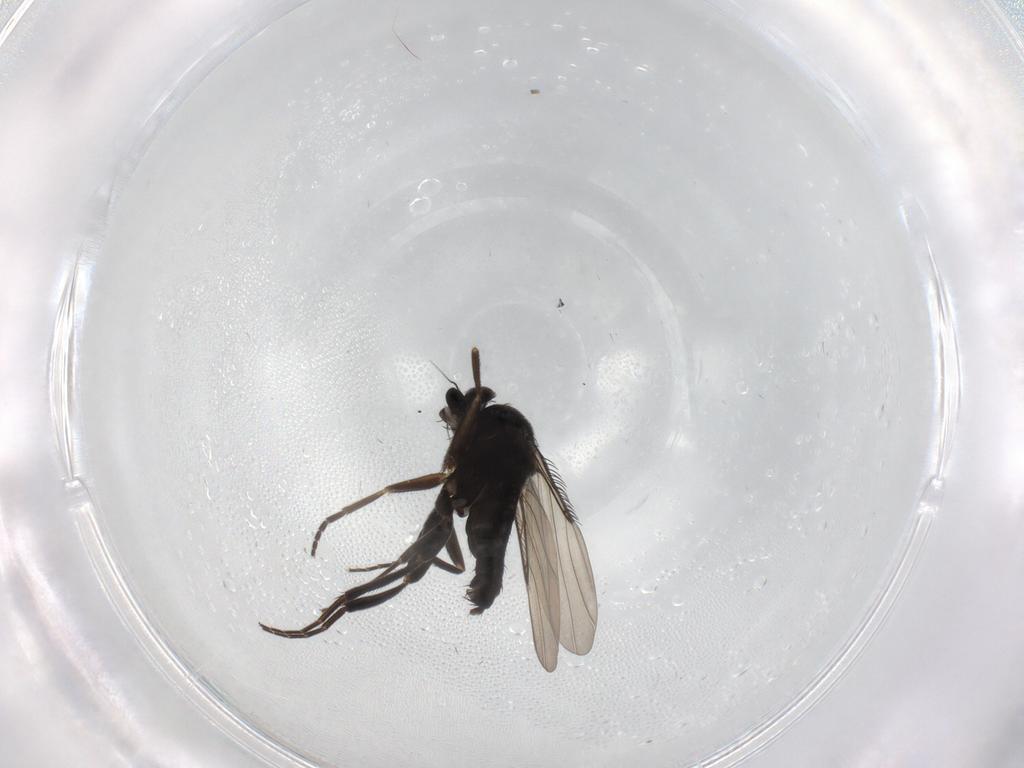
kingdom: Animalia
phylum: Arthropoda
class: Insecta
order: Diptera
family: Phoridae
